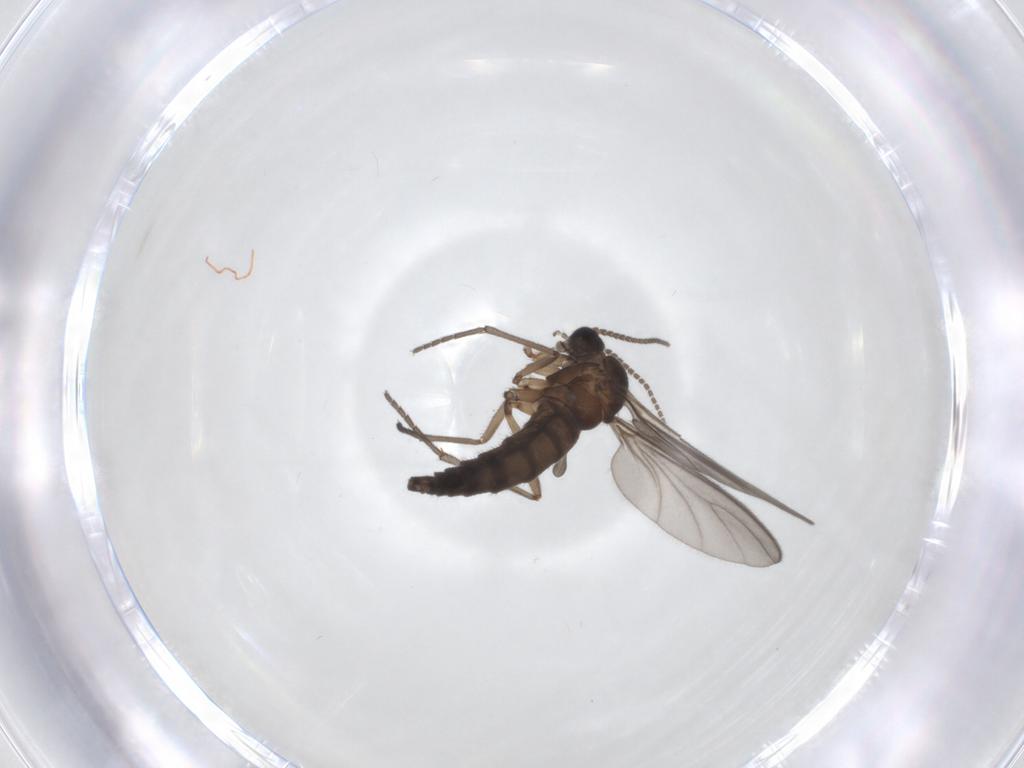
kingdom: Animalia
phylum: Arthropoda
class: Insecta
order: Diptera
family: Sciaridae
